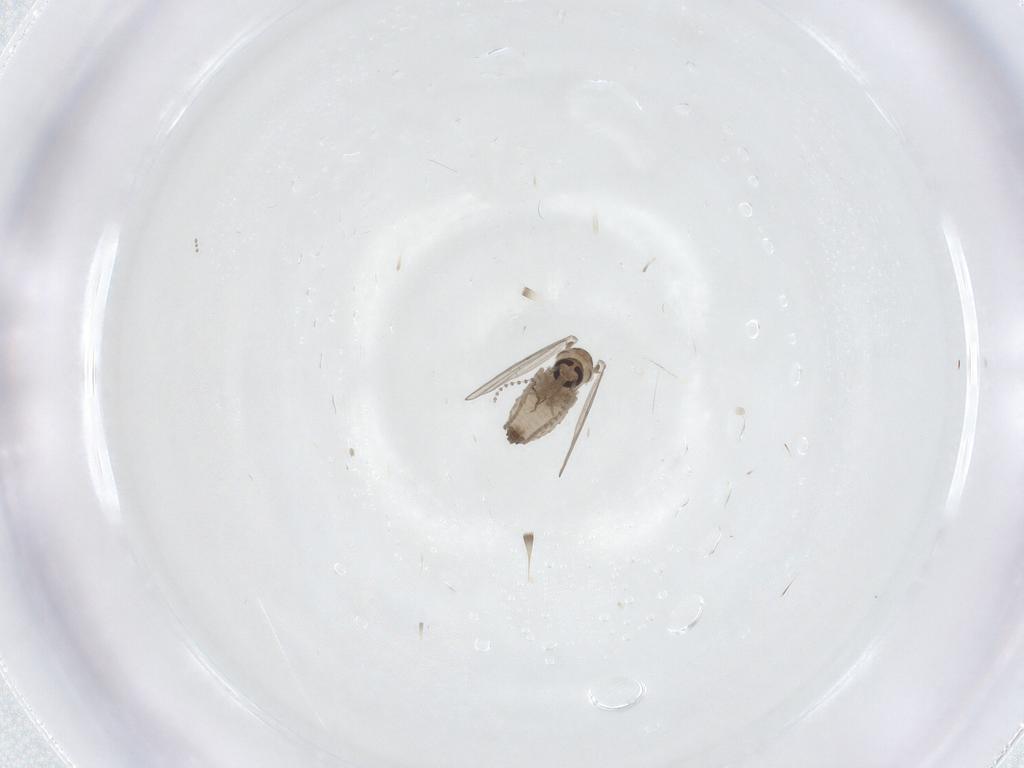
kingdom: Animalia
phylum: Arthropoda
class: Insecta
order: Diptera
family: Psychodidae
